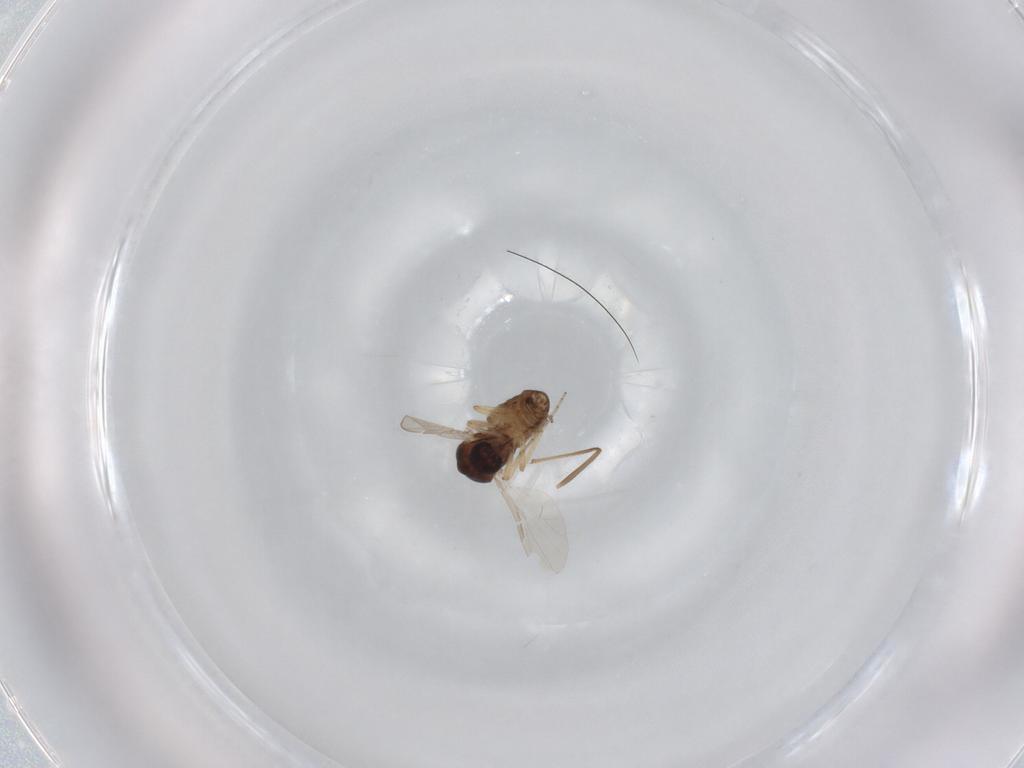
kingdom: Animalia
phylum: Arthropoda
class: Insecta
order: Diptera
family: Ceratopogonidae
